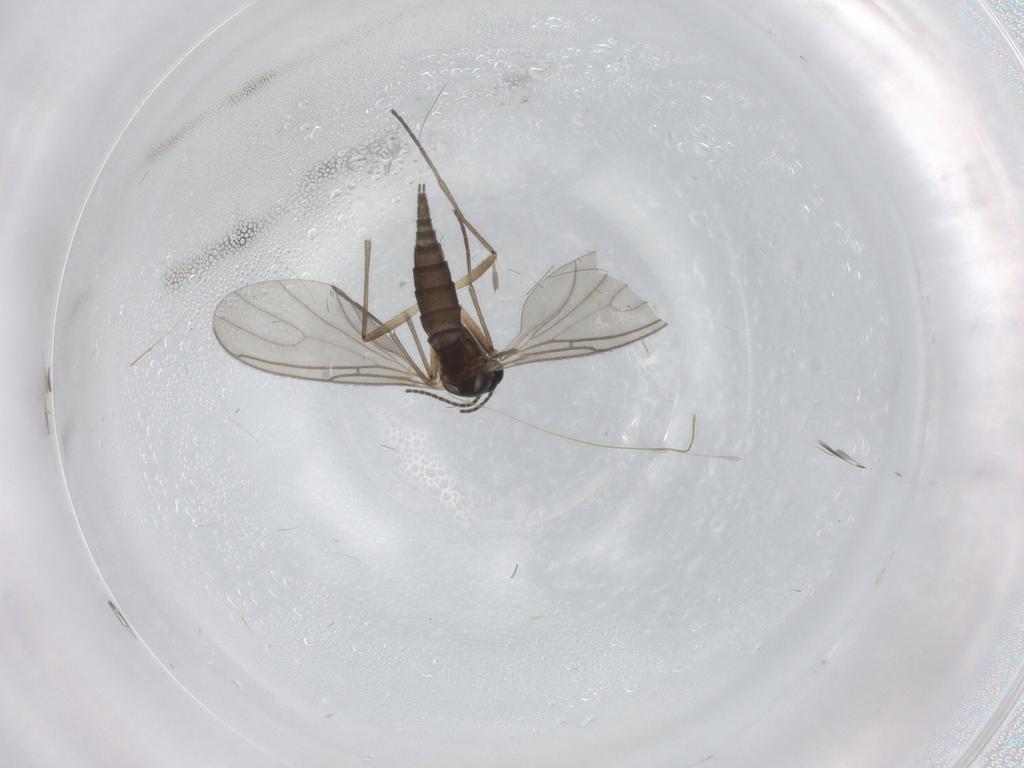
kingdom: Animalia
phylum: Arthropoda
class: Insecta
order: Diptera
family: Sciaridae
